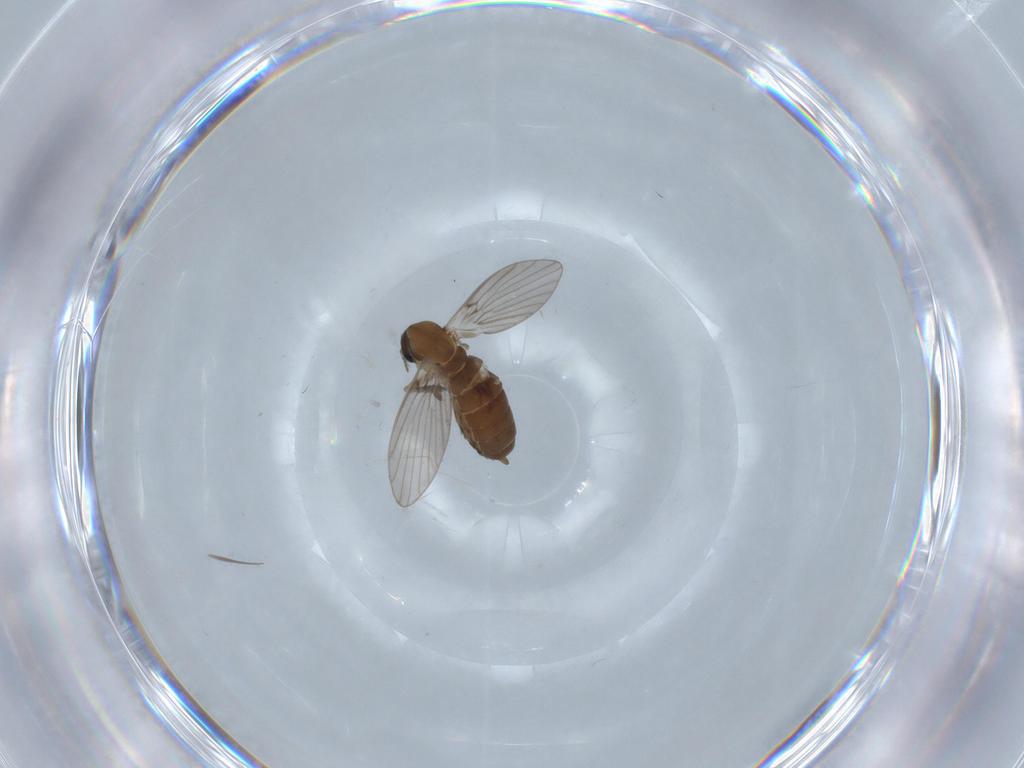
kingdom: Animalia
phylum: Arthropoda
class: Insecta
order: Diptera
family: Psychodidae
